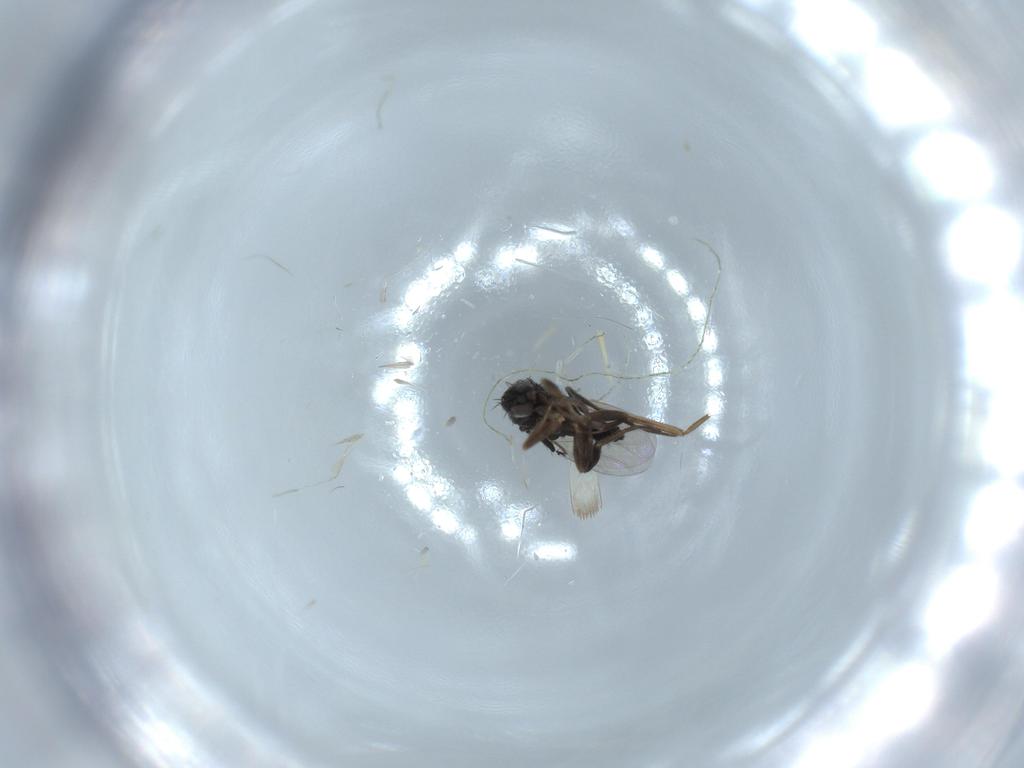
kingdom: Animalia
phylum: Arthropoda
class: Insecta
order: Diptera
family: Phoridae
